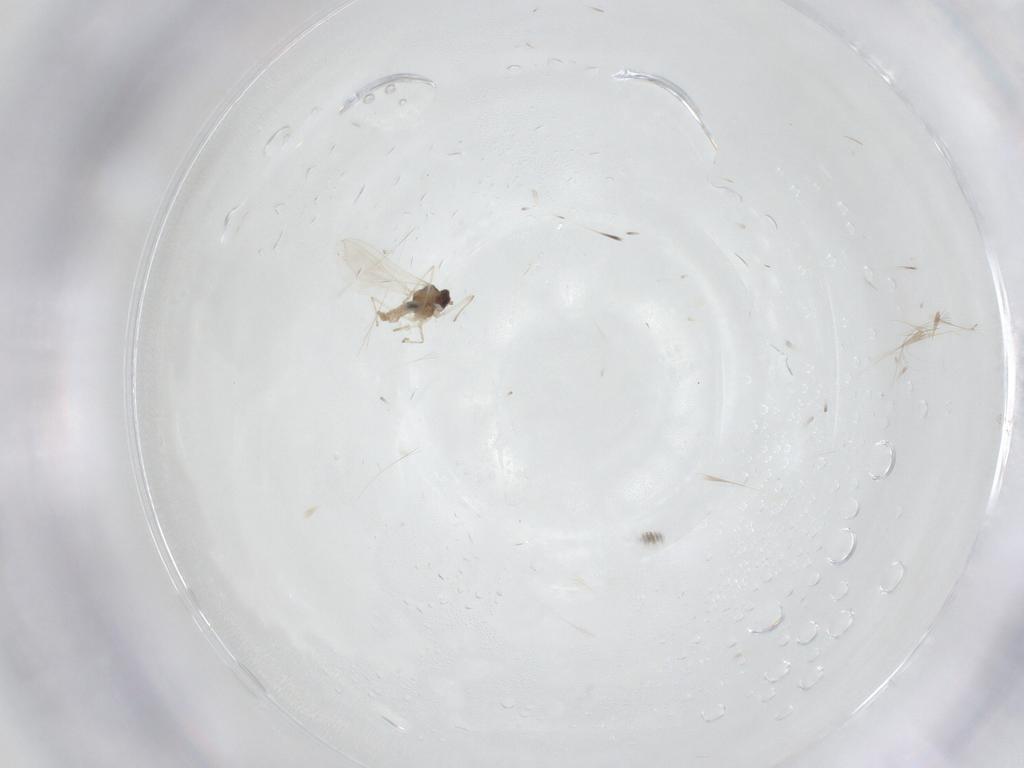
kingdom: Animalia
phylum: Arthropoda
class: Insecta
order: Diptera
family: Cecidomyiidae
